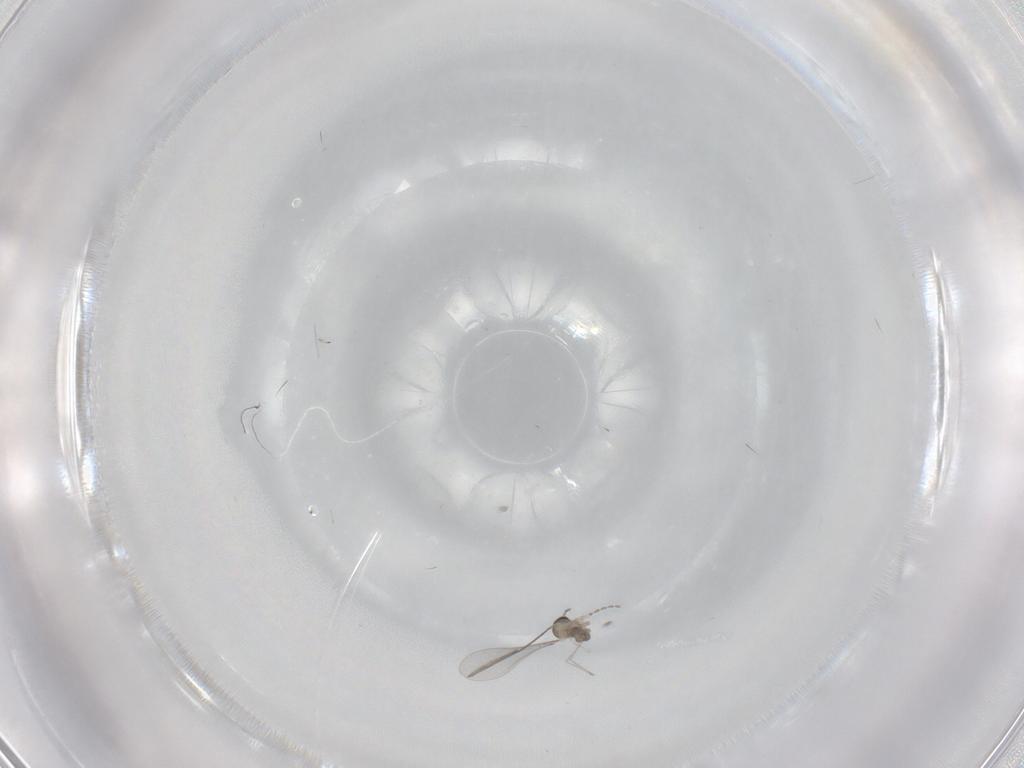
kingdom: Animalia
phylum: Arthropoda
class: Insecta
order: Diptera
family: Cecidomyiidae
